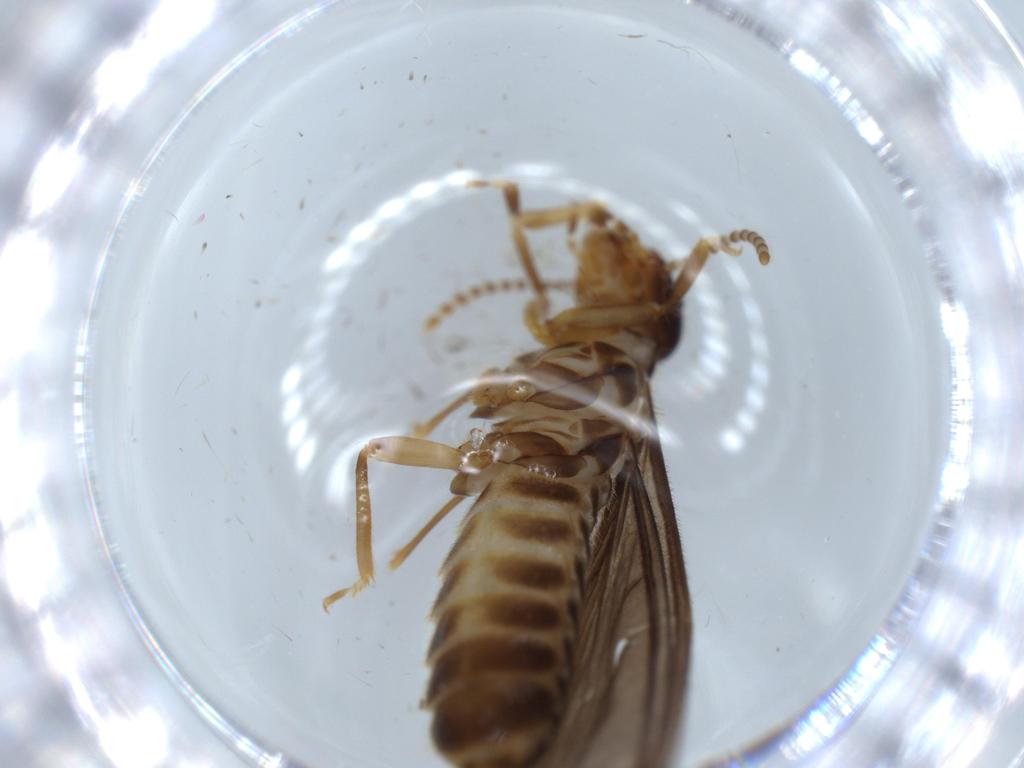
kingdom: Animalia
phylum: Arthropoda
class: Insecta
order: Blattodea
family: Termitidae
